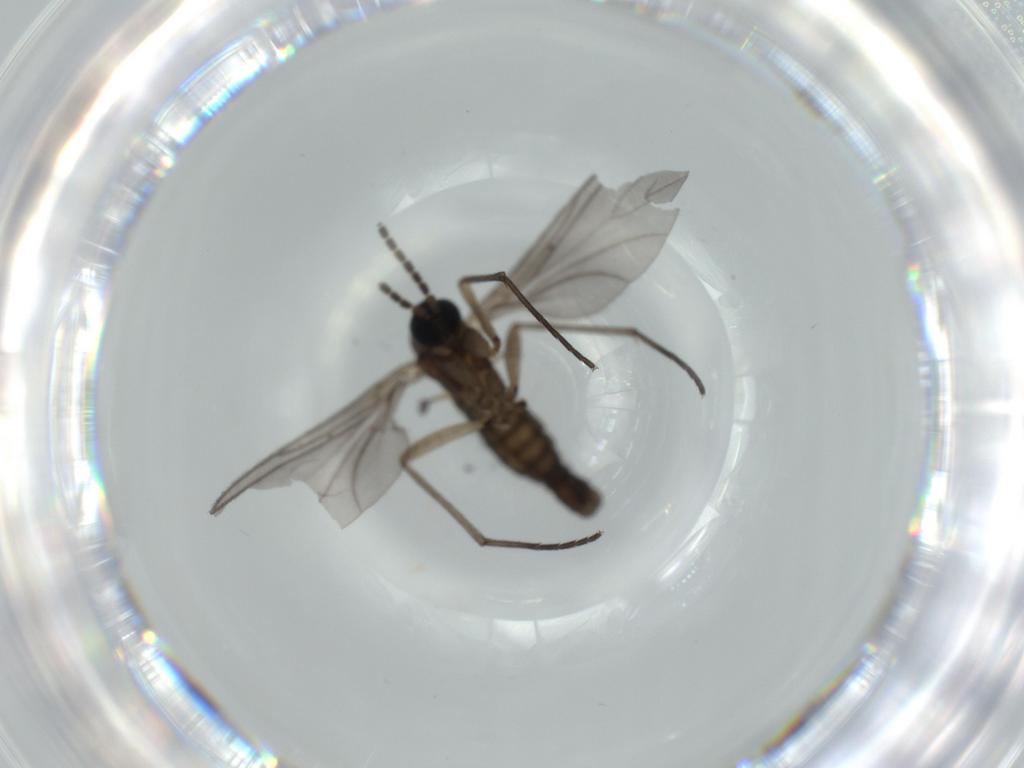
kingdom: Animalia
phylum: Arthropoda
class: Insecta
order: Diptera
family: Sciaridae
